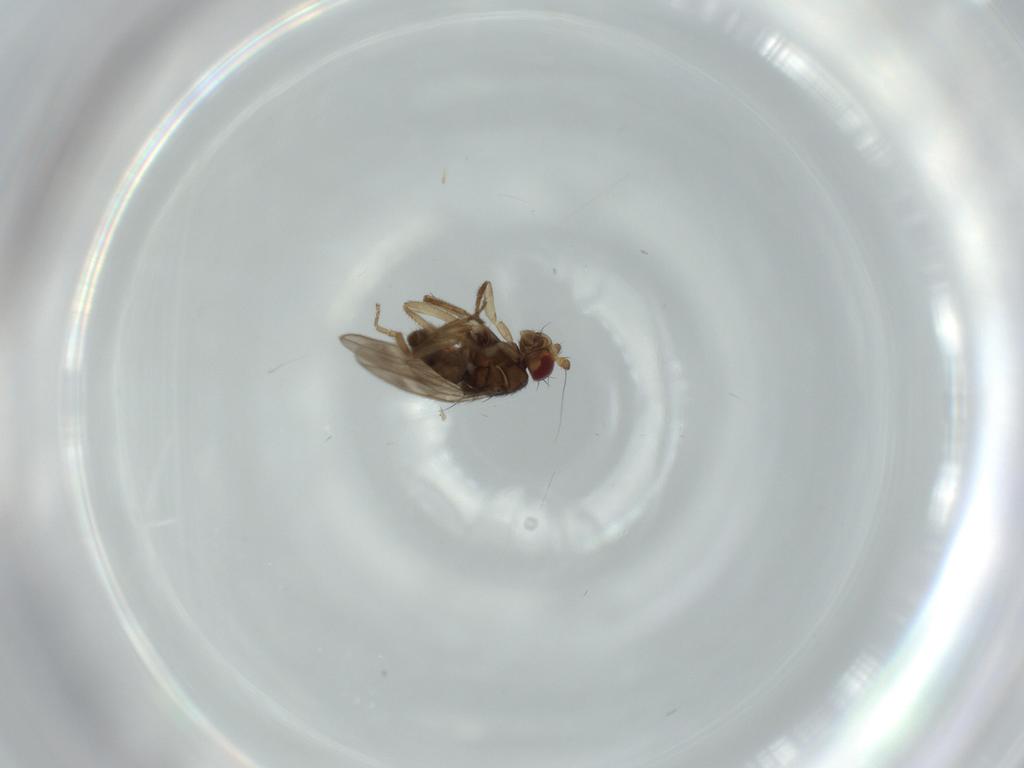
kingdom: Animalia
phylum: Arthropoda
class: Insecta
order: Diptera
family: Sphaeroceridae
